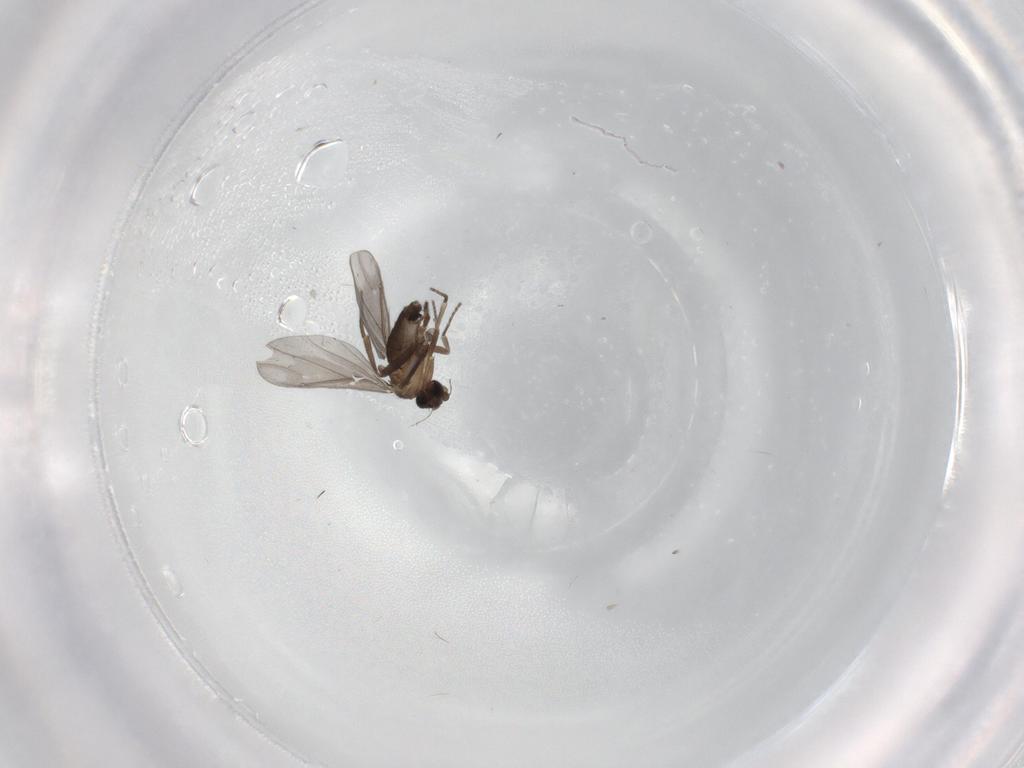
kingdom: Animalia
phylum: Arthropoda
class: Insecta
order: Diptera
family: Phoridae
